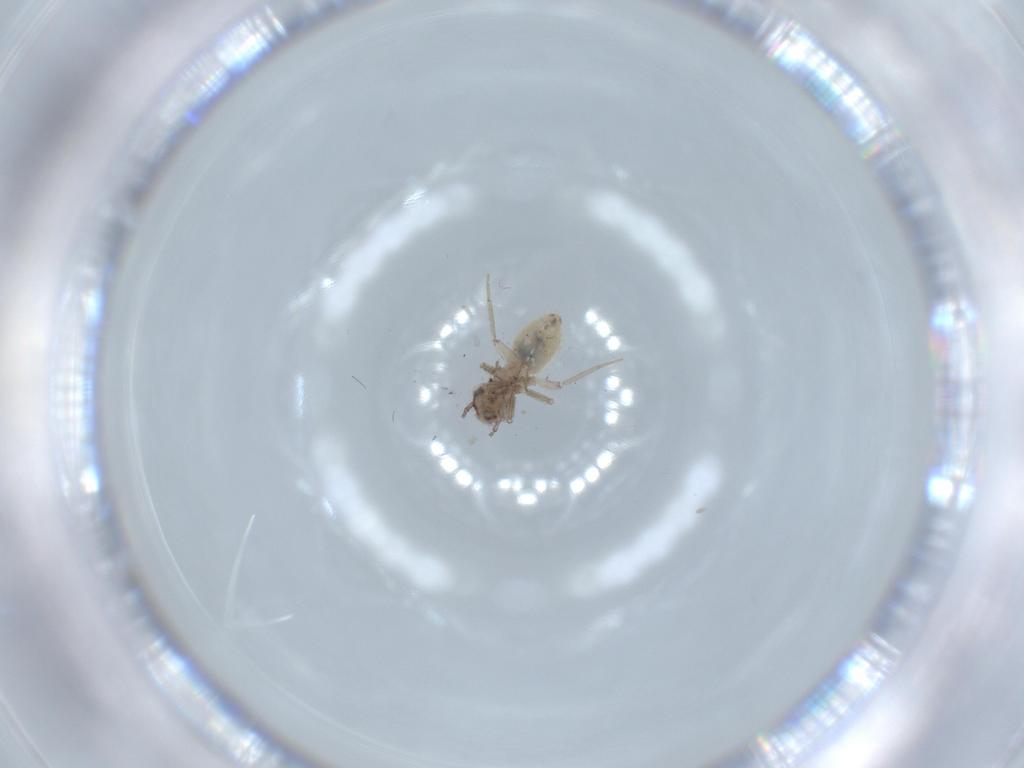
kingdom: Animalia
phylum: Arthropoda
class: Insecta
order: Psocodea
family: Lepidopsocidae
